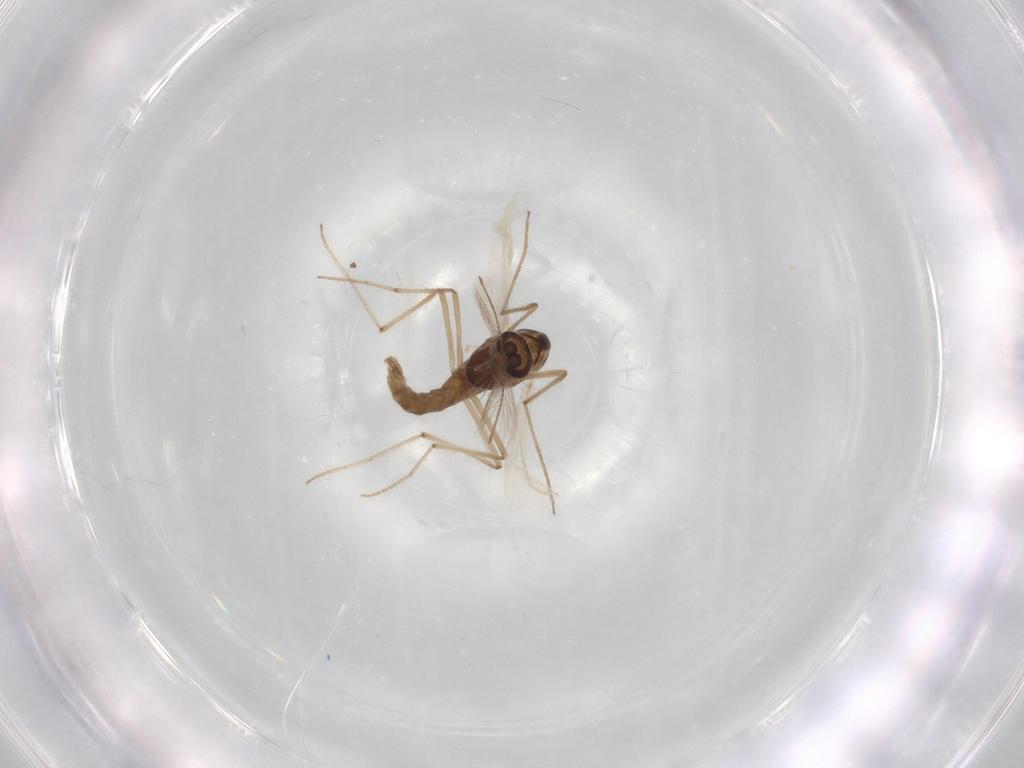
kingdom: Animalia
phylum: Arthropoda
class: Insecta
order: Diptera
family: Chironomidae
